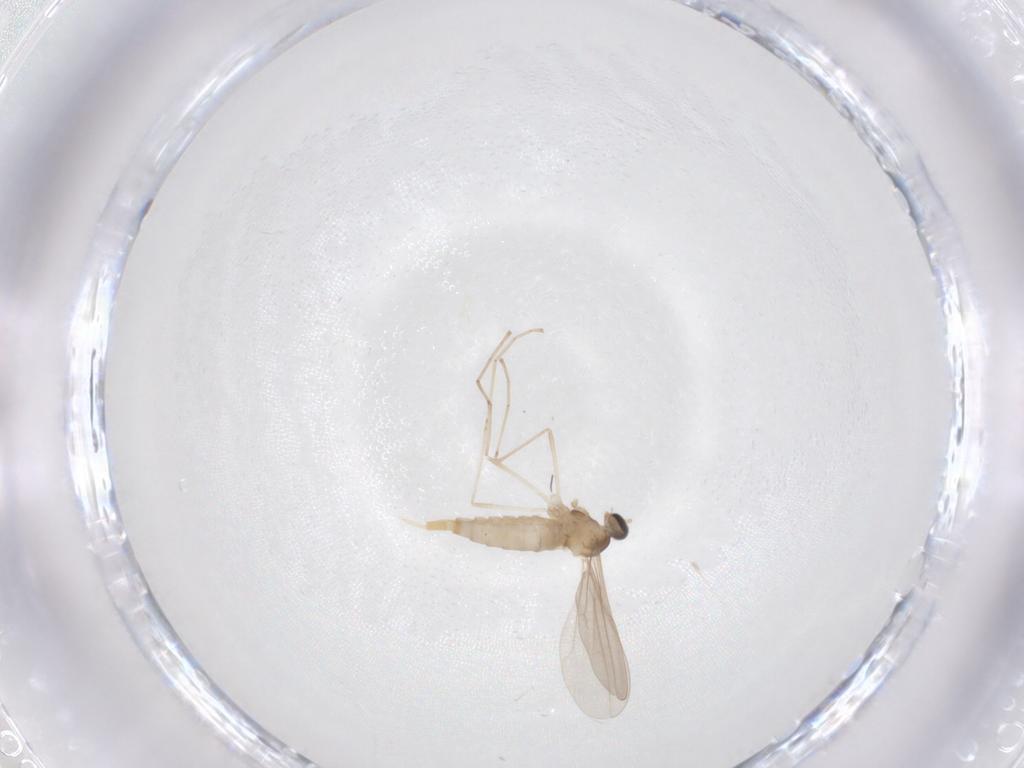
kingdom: Animalia
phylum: Arthropoda
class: Insecta
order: Diptera
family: Cecidomyiidae
